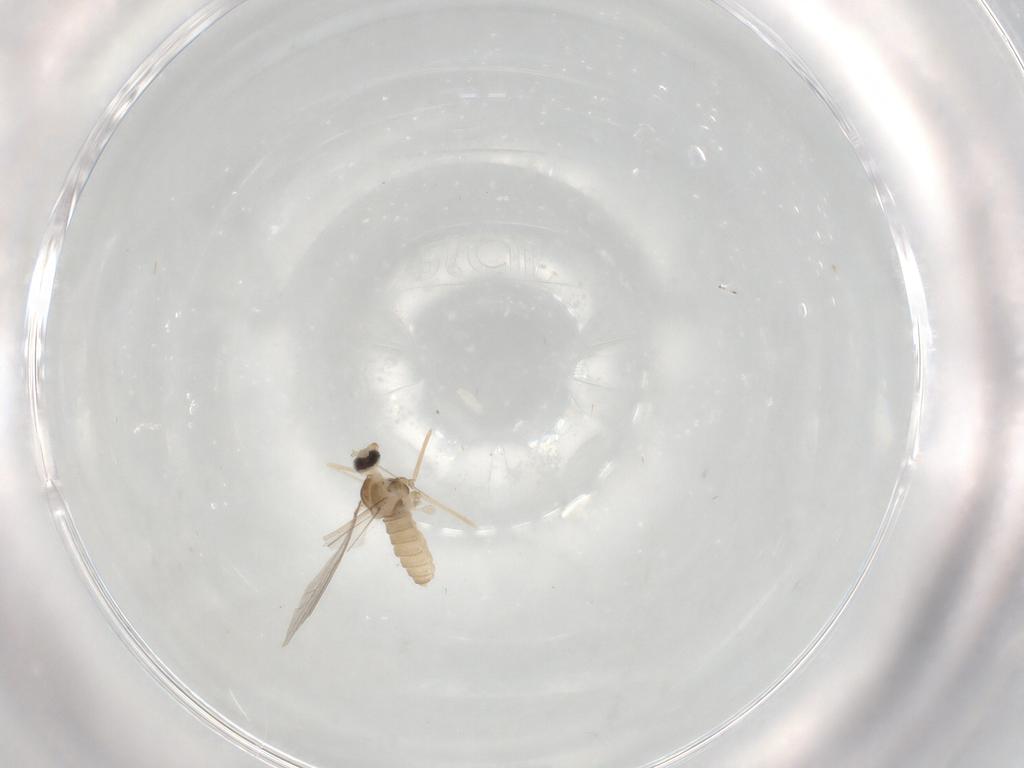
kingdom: Animalia
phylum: Arthropoda
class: Insecta
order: Diptera
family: Cecidomyiidae
